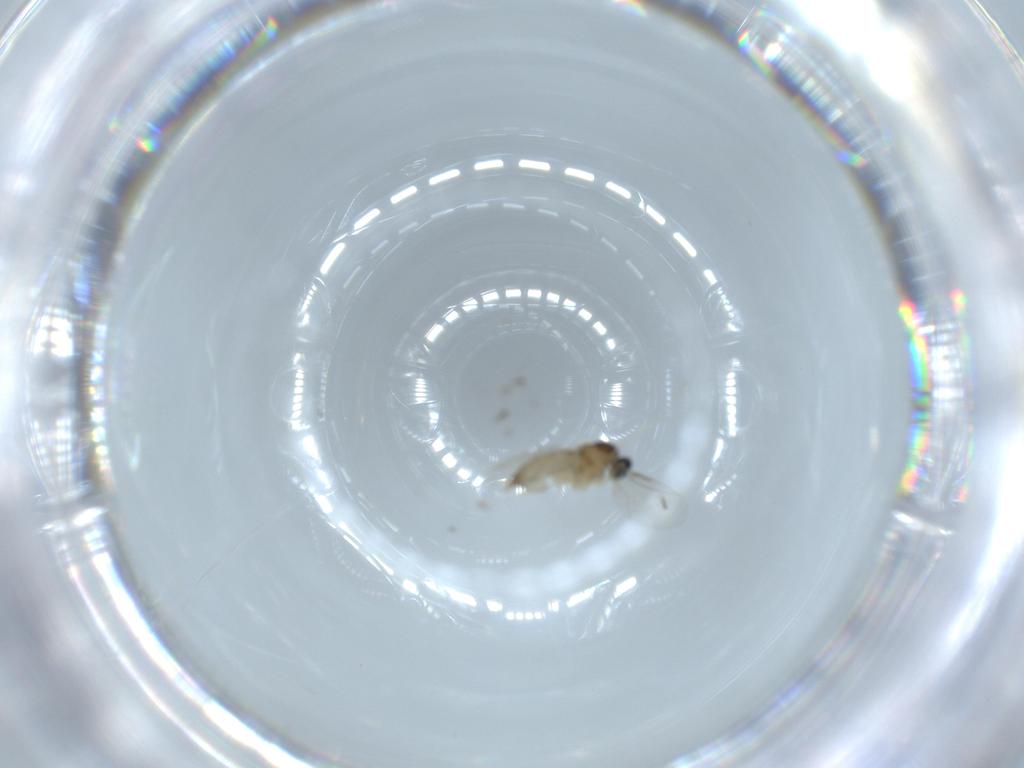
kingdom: Animalia
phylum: Arthropoda
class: Insecta
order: Diptera
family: Cecidomyiidae
